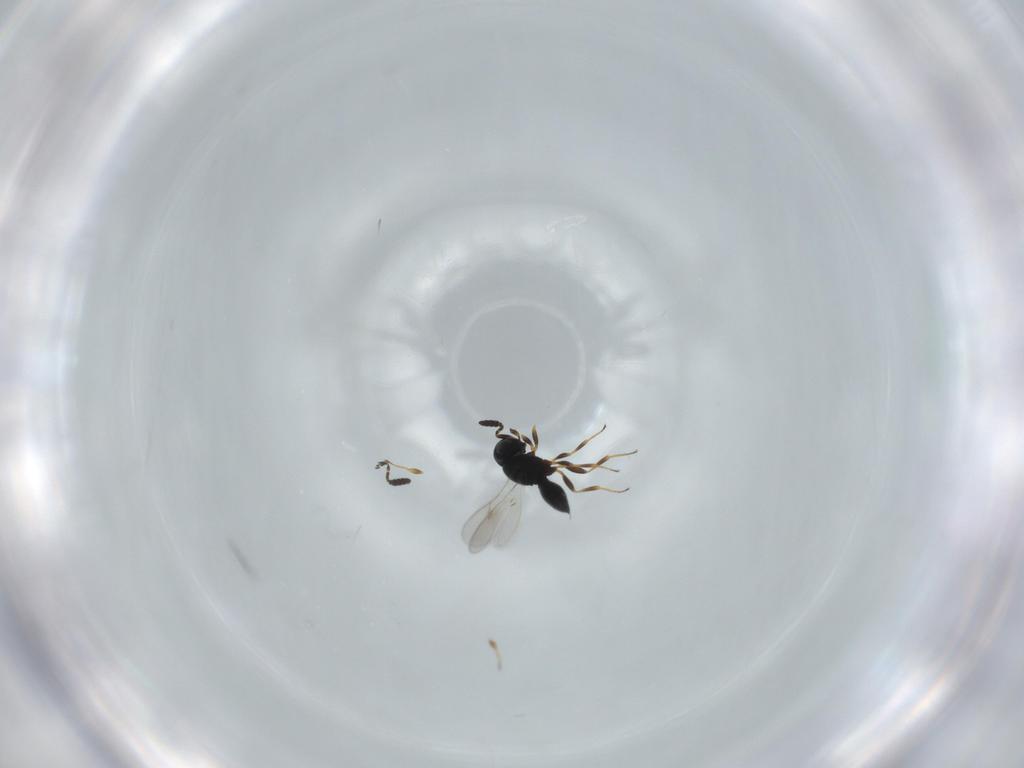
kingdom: Animalia
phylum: Arthropoda
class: Insecta
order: Hymenoptera
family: Scelionidae
